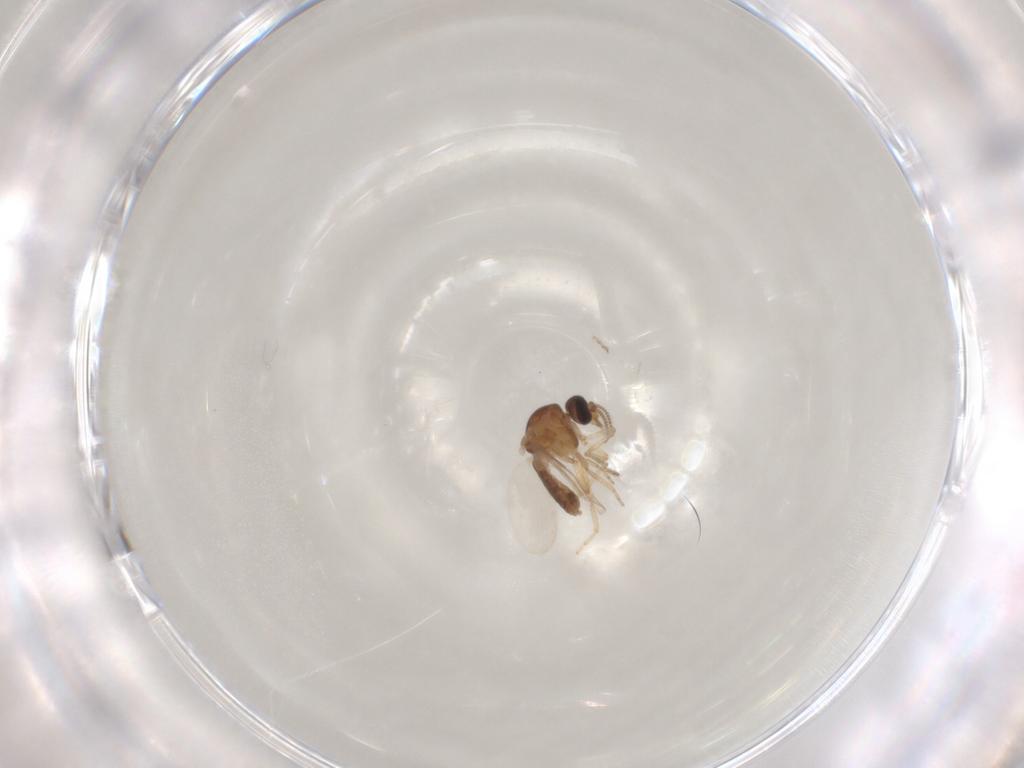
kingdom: Animalia
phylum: Arthropoda
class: Insecta
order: Diptera
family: Ceratopogonidae
